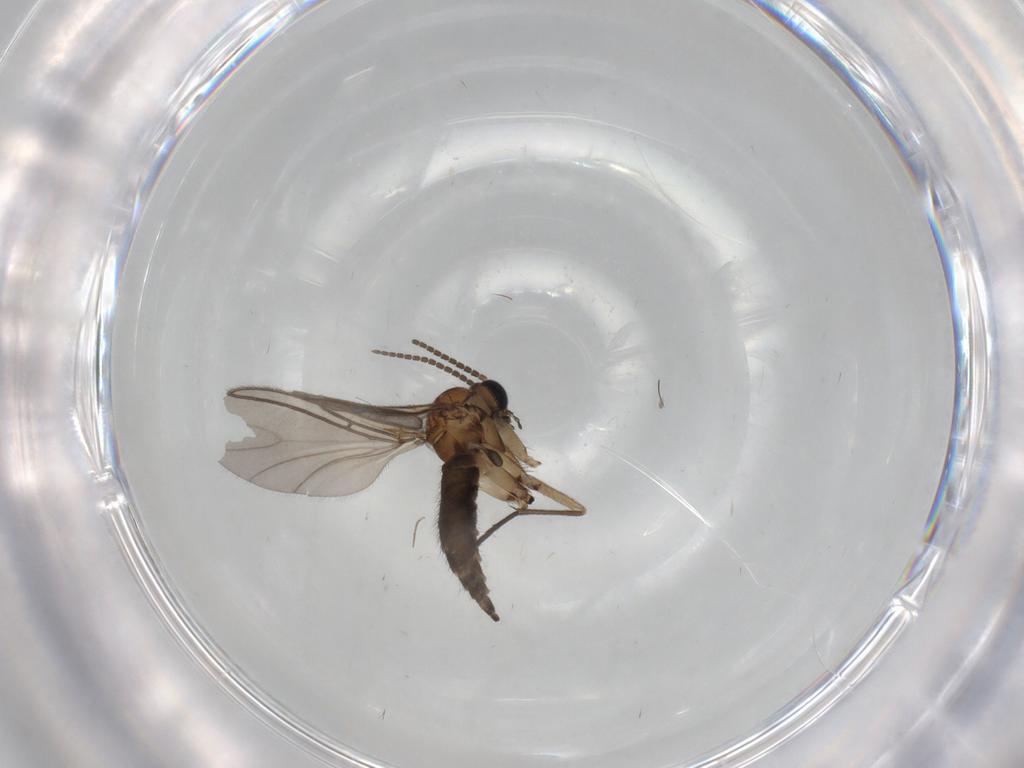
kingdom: Animalia
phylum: Arthropoda
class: Insecta
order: Diptera
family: Sciaridae
